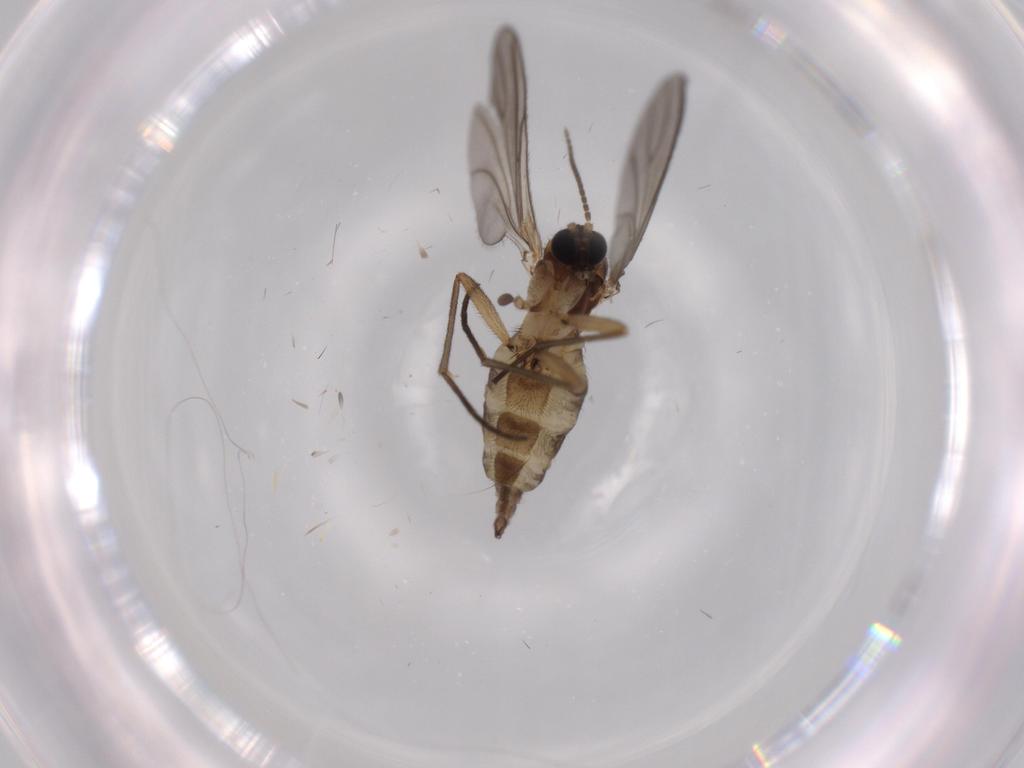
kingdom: Animalia
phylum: Arthropoda
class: Insecta
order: Diptera
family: Sciaridae
